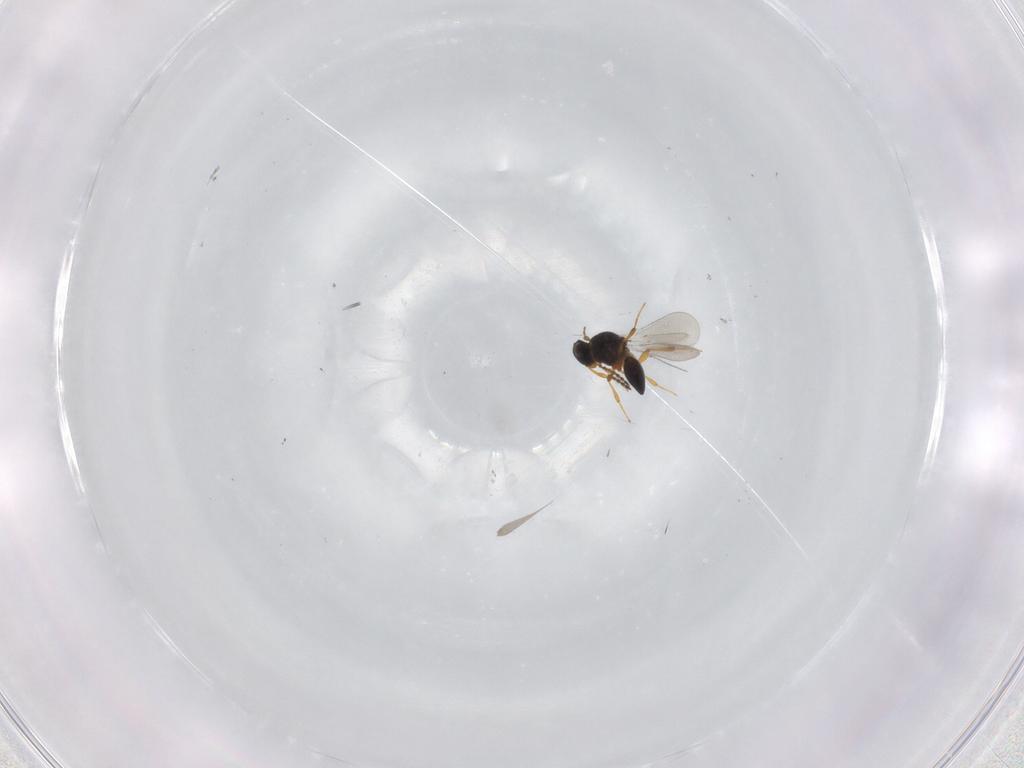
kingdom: Animalia
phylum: Arthropoda
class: Insecta
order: Hymenoptera
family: Platygastridae
